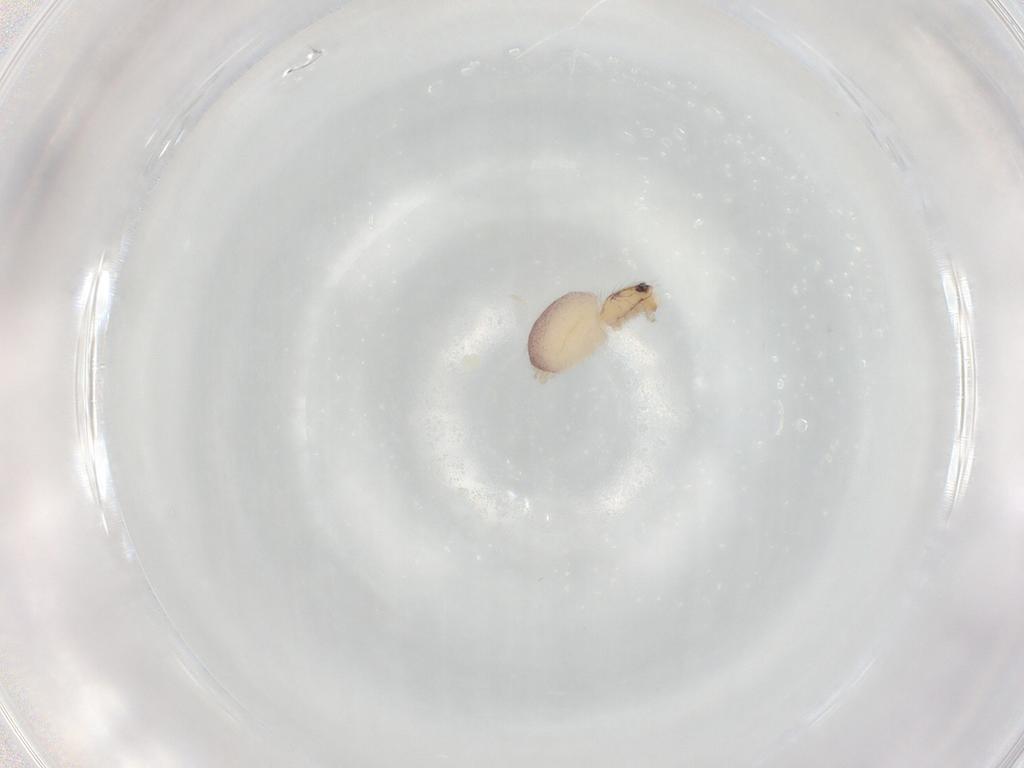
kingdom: Animalia
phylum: Arthropoda
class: Arachnida
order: Araneae
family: Dictynidae
